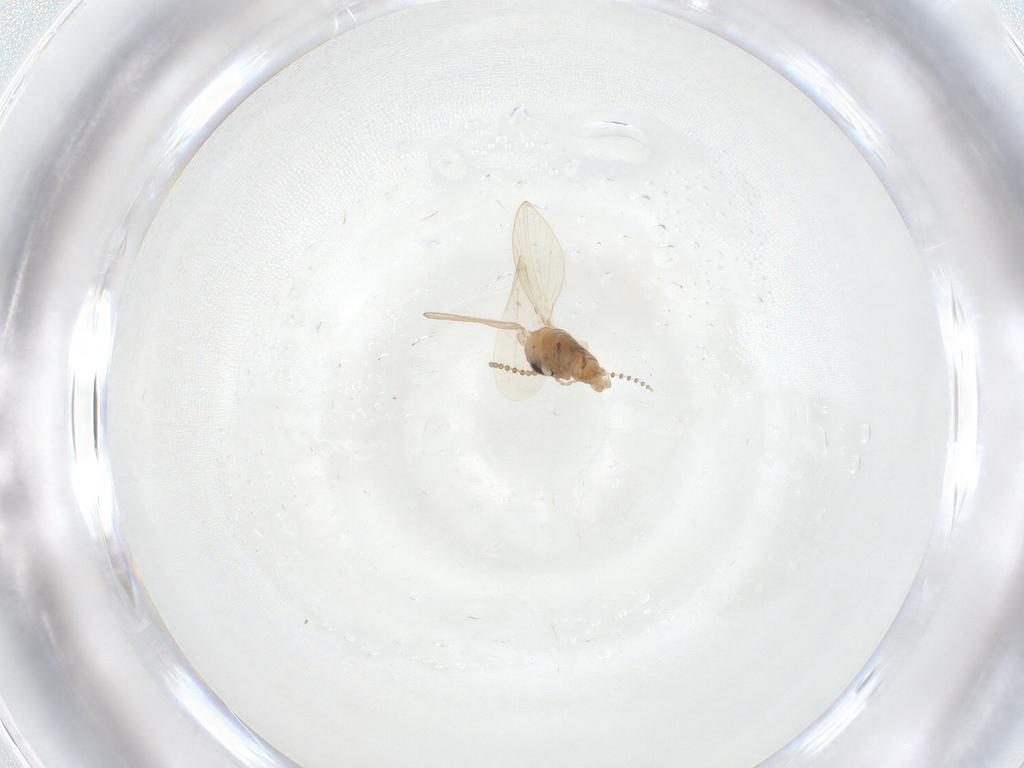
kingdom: Animalia
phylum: Arthropoda
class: Insecta
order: Diptera
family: Psychodidae
